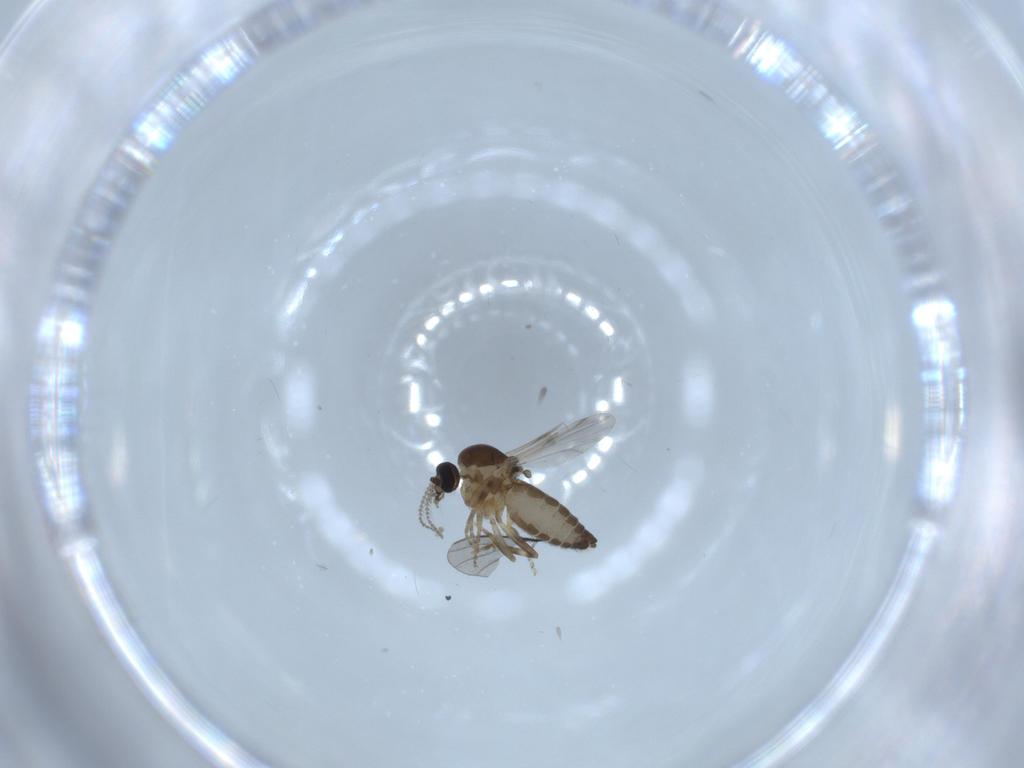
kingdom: Animalia
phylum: Arthropoda
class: Insecta
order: Diptera
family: Ceratopogonidae
